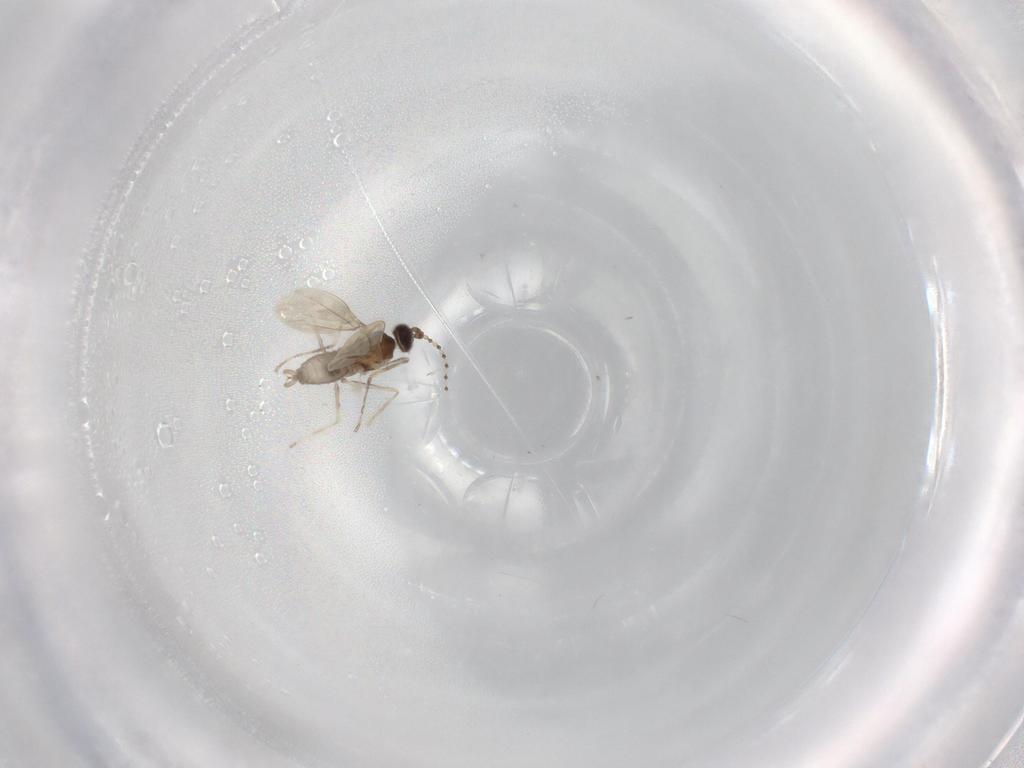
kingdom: Animalia
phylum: Arthropoda
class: Insecta
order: Diptera
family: Cecidomyiidae
